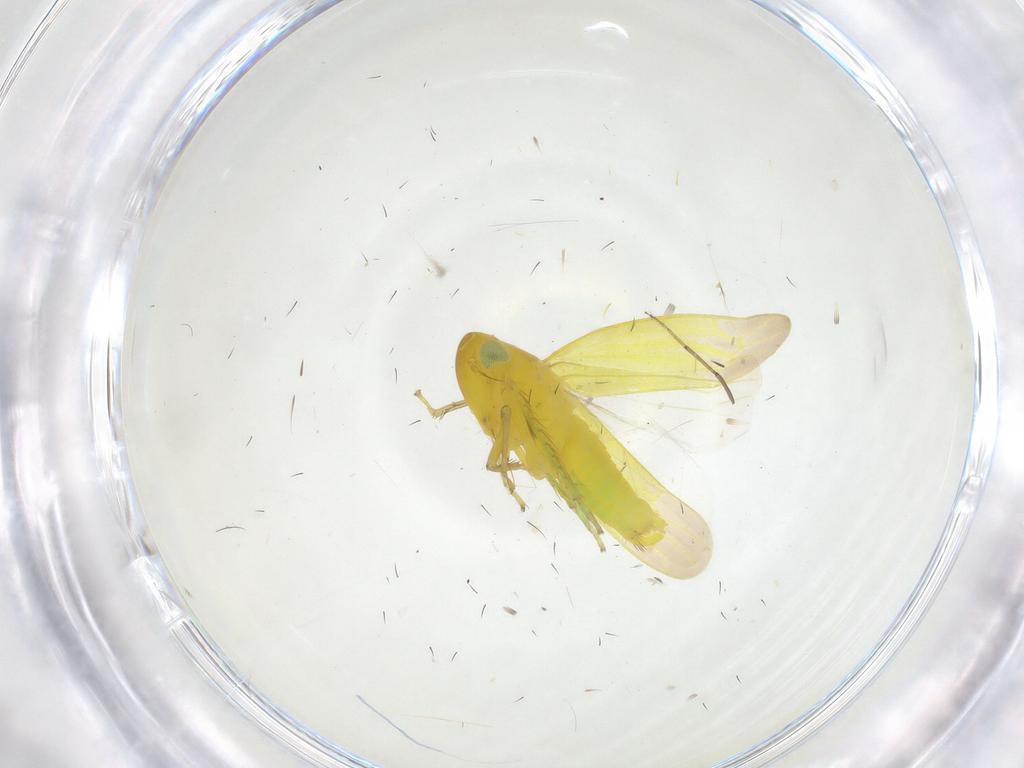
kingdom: Animalia
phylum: Arthropoda
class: Insecta
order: Hemiptera
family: Cicadellidae
